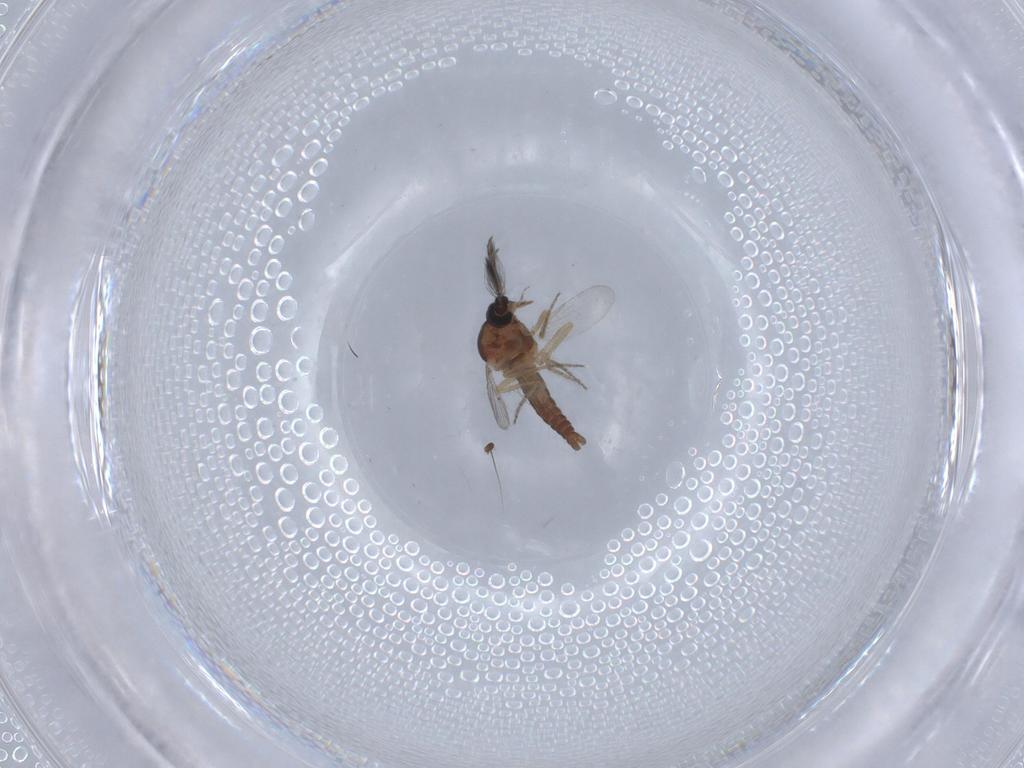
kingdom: Animalia
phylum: Arthropoda
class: Insecta
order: Diptera
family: Ceratopogonidae
